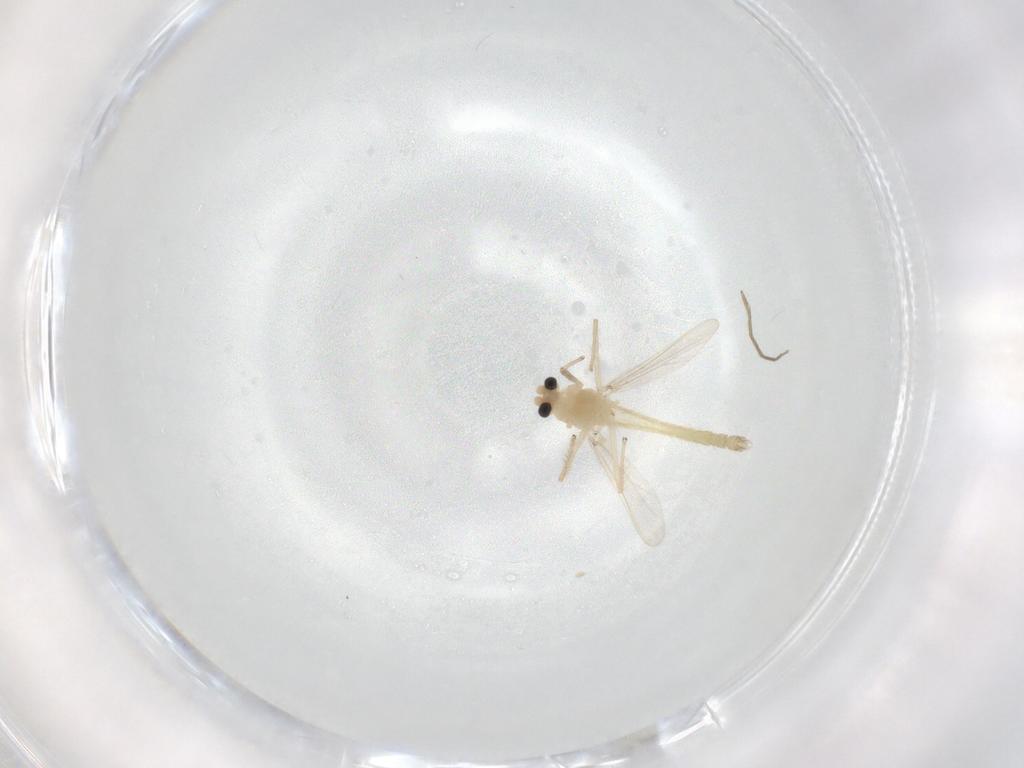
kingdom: Animalia
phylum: Arthropoda
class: Insecta
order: Diptera
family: Chironomidae
